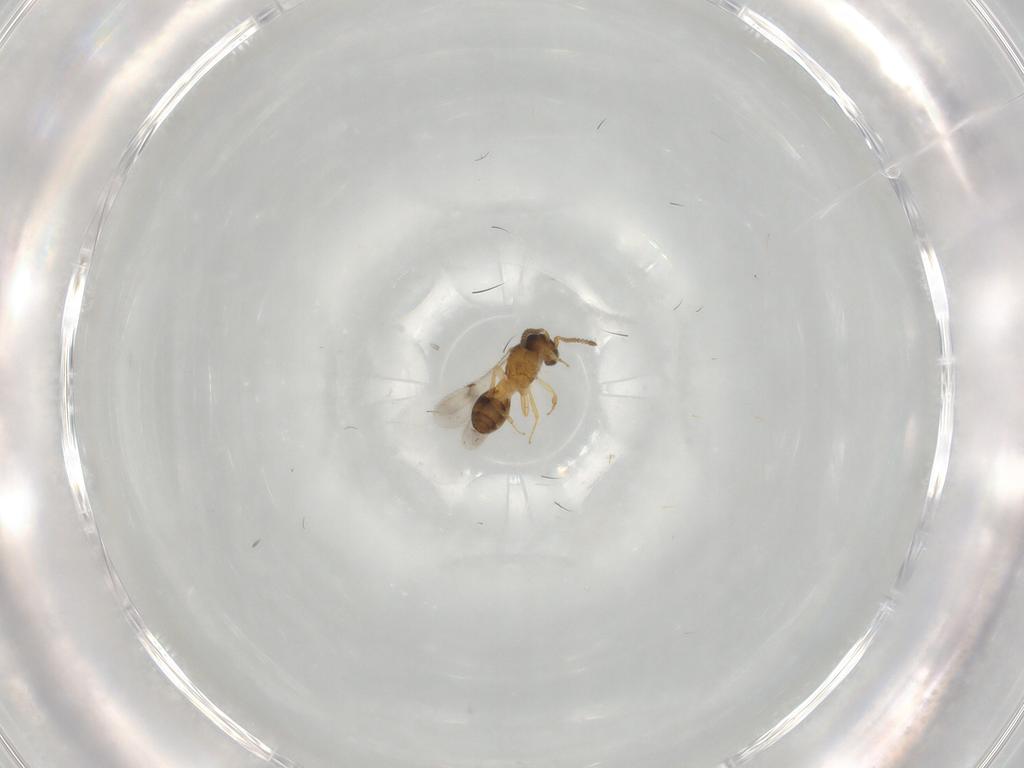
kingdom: Animalia
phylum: Arthropoda
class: Insecta
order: Hymenoptera
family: Scelionidae
